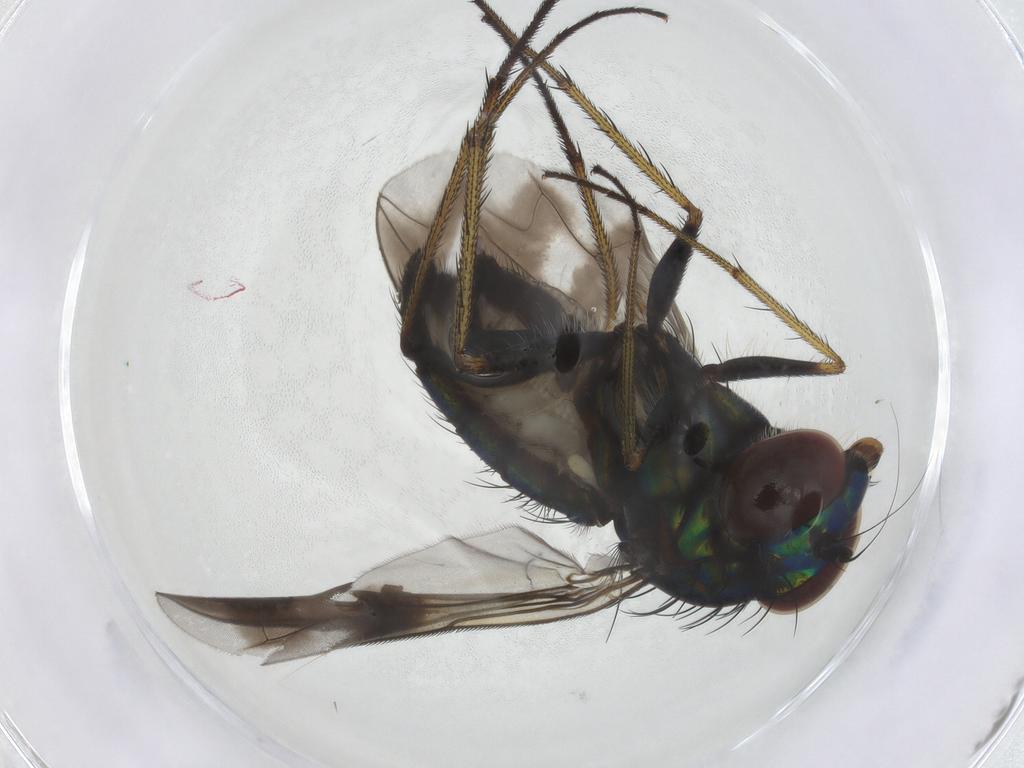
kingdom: Animalia
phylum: Arthropoda
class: Insecta
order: Diptera
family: Dolichopodidae
